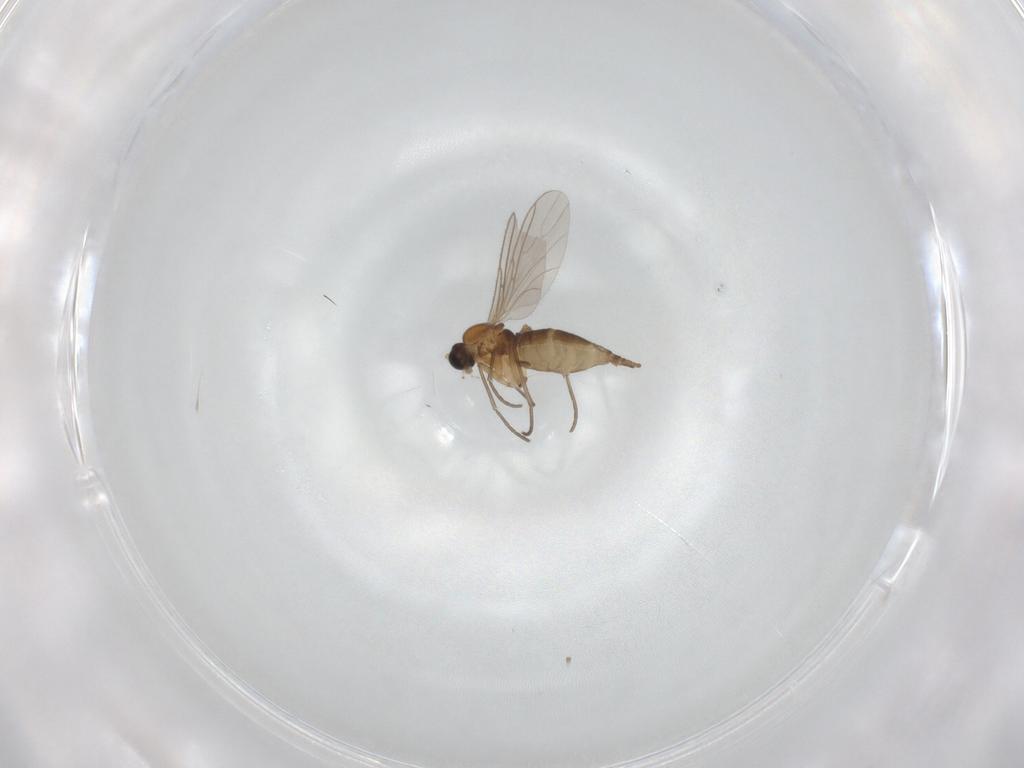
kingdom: Animalia
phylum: Arthropoda
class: Insecta
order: Diptera
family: Sciaridae
